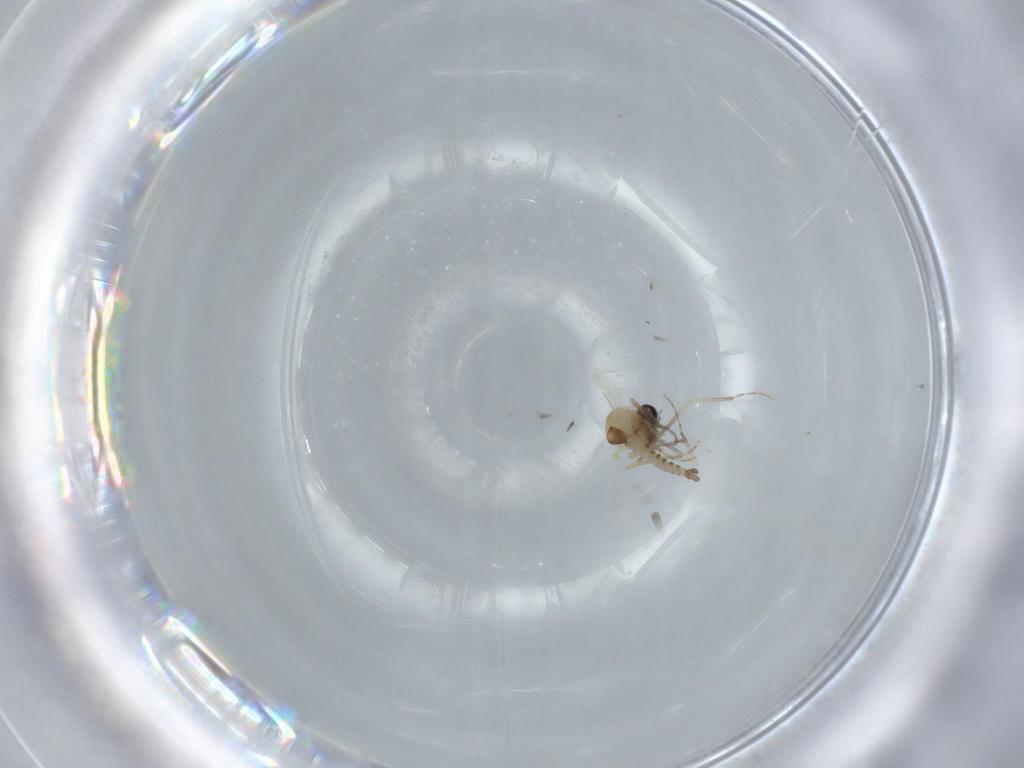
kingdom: Animalia
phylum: Arthropoda
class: Insecta
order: Diptera
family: Ceratopogonidae
